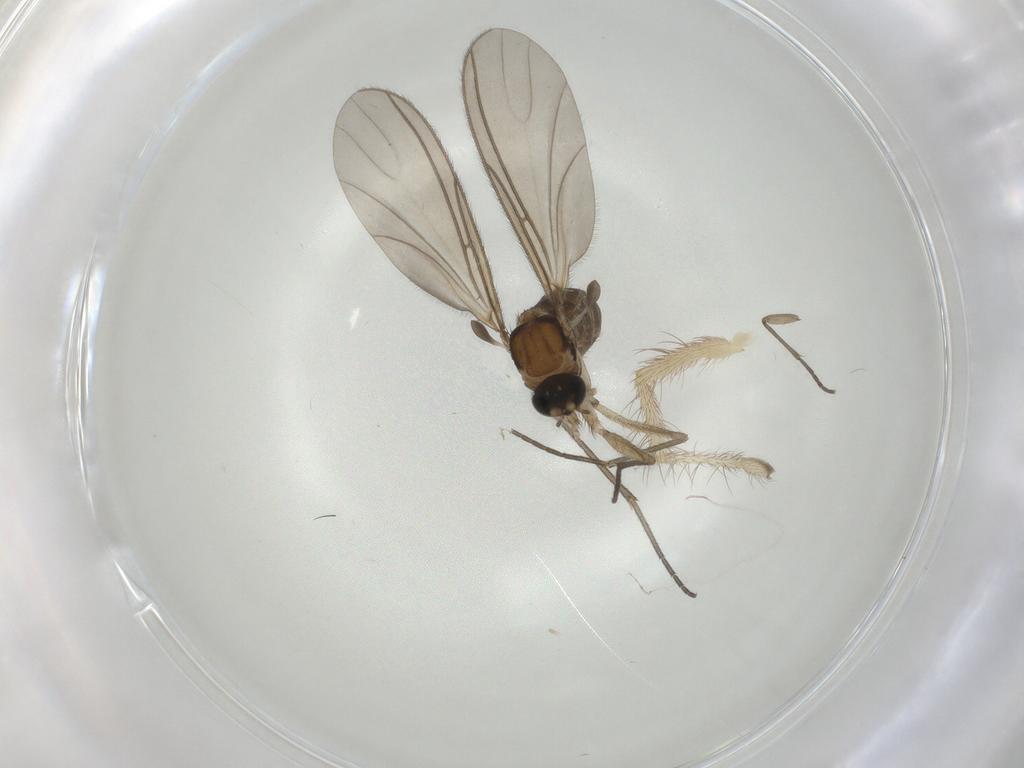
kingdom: Animalia
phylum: Arthropoda
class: Insecta
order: Diptera
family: Sciaridae
